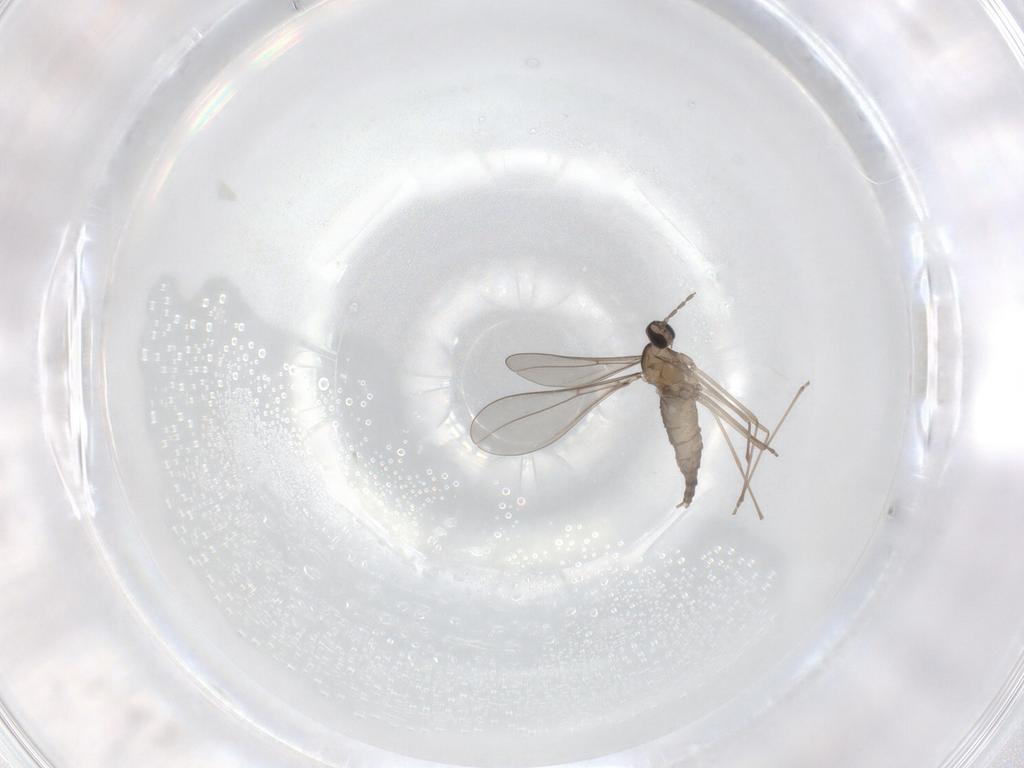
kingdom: Animalia
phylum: Arthropoda
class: Insecta
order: Diptera
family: Cecidomyiidae
